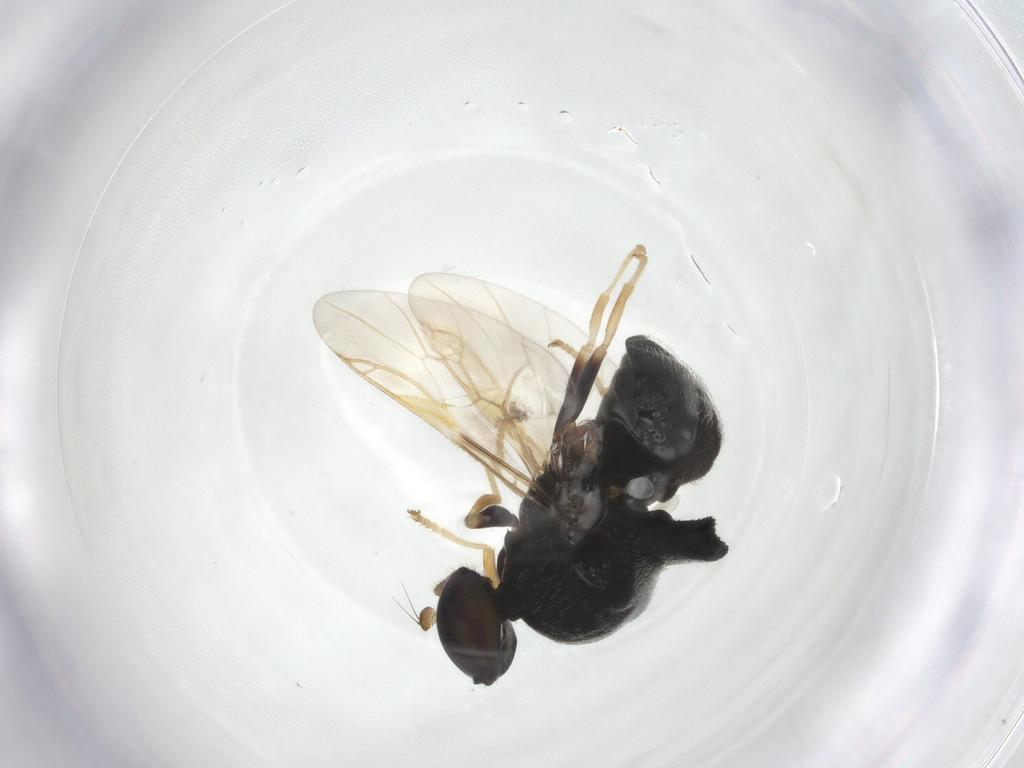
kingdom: Animalia
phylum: Arthropoda
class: Insecta
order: Diptera
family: Stratiomyidae
